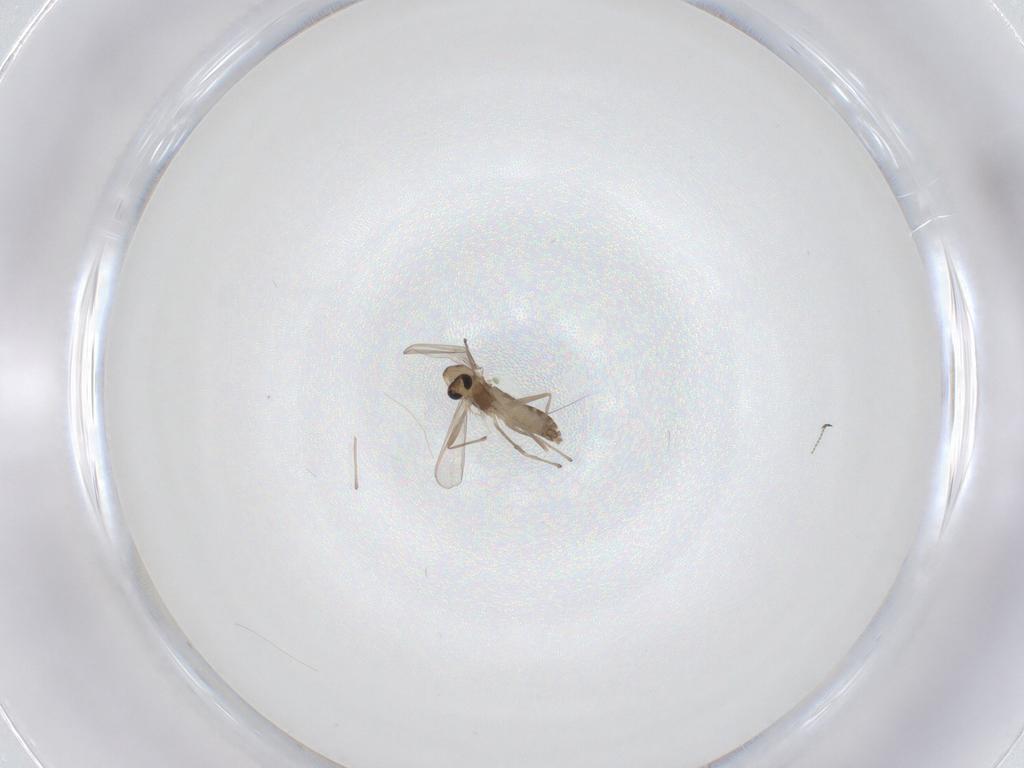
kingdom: Animalia
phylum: Arthropoda
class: Insecta
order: Diptera
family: Chironomidae
